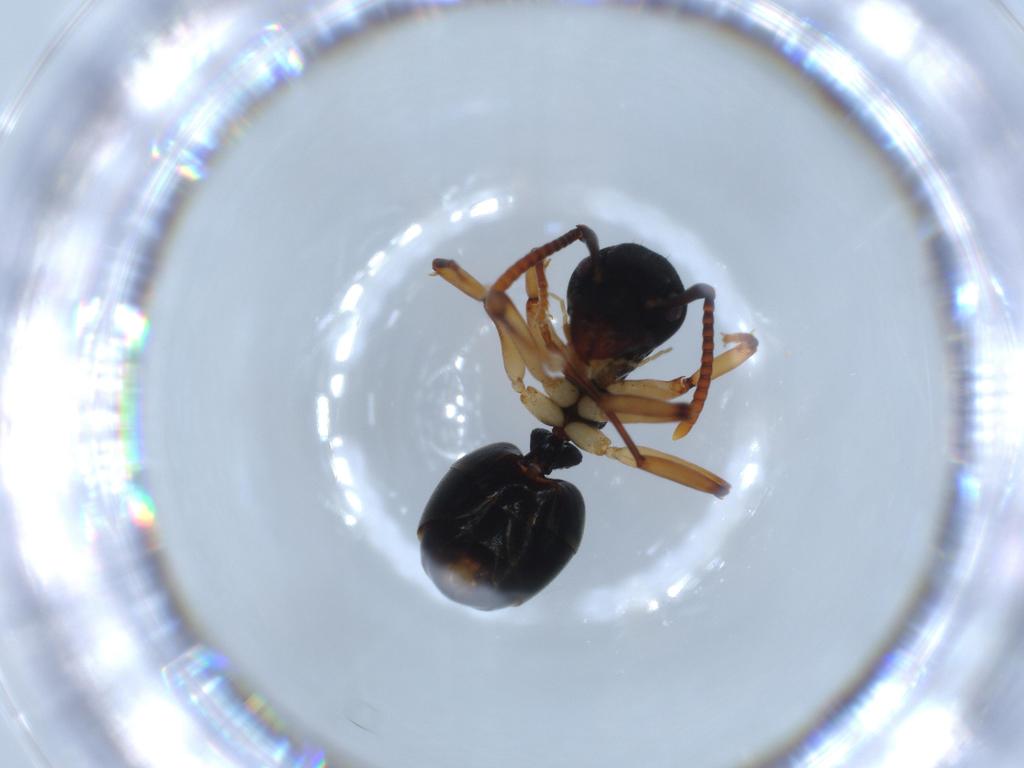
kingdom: Animalia
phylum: Arthropoda
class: Insecta
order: Hymenoptera
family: Formicidae
